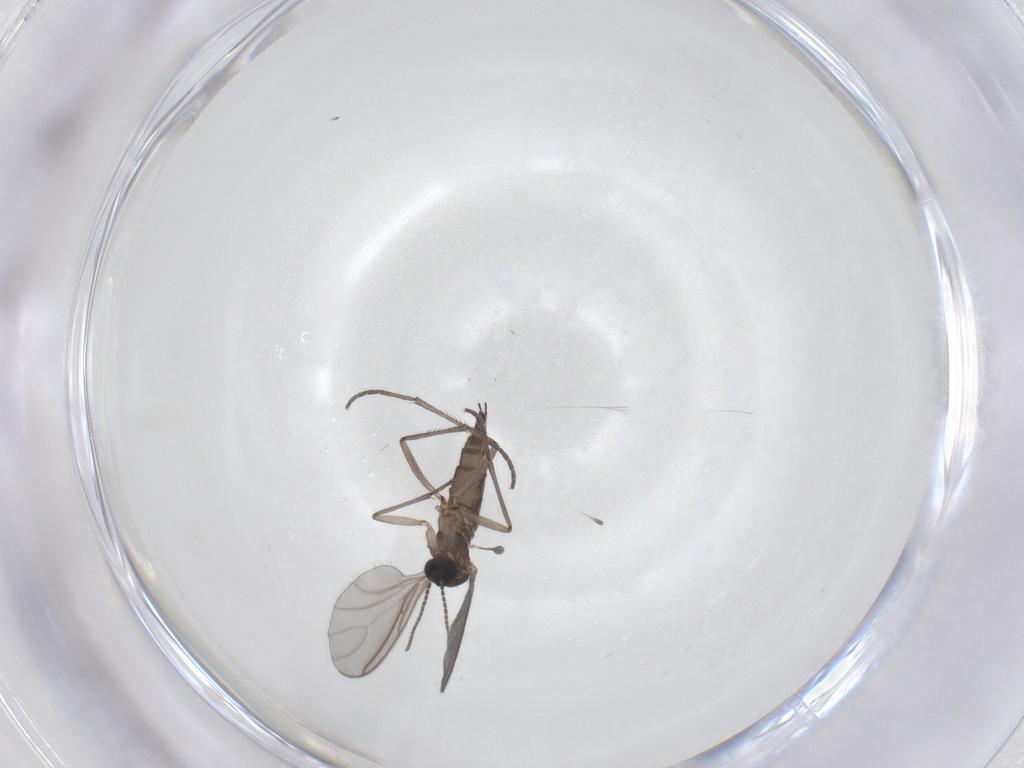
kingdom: Animalia
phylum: Arthropoda
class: Insecta
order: Diptera
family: Sciaridae
